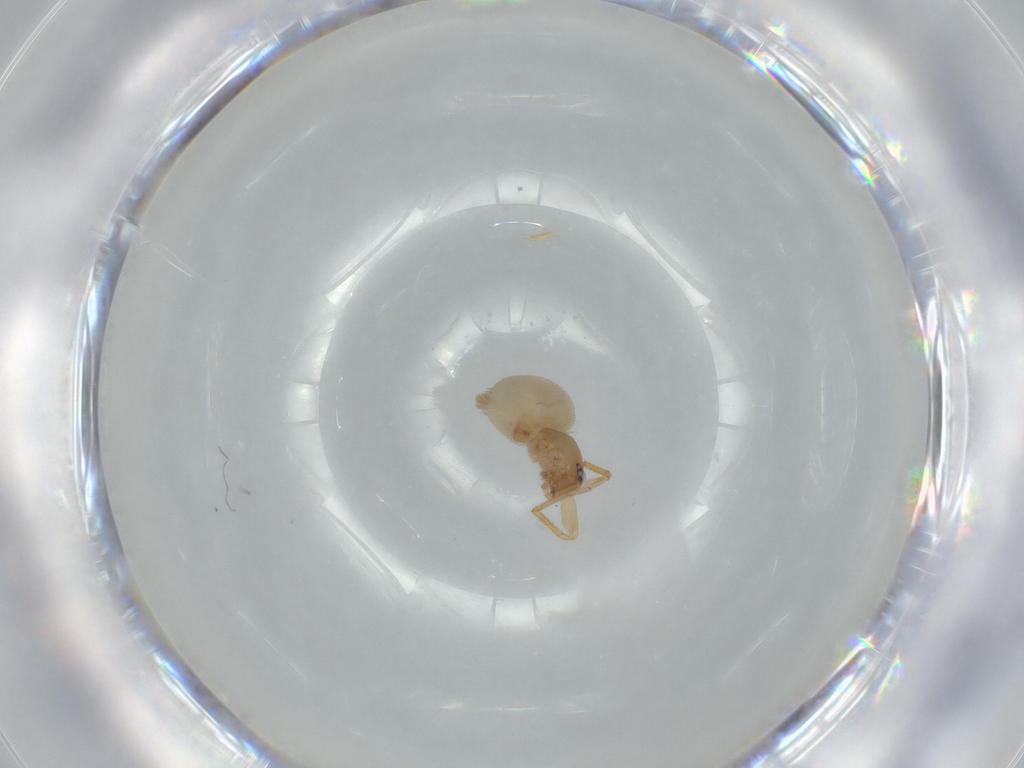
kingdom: Animalia
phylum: Arthropoda
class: Arachnida
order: Araneae
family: Oonopidae
